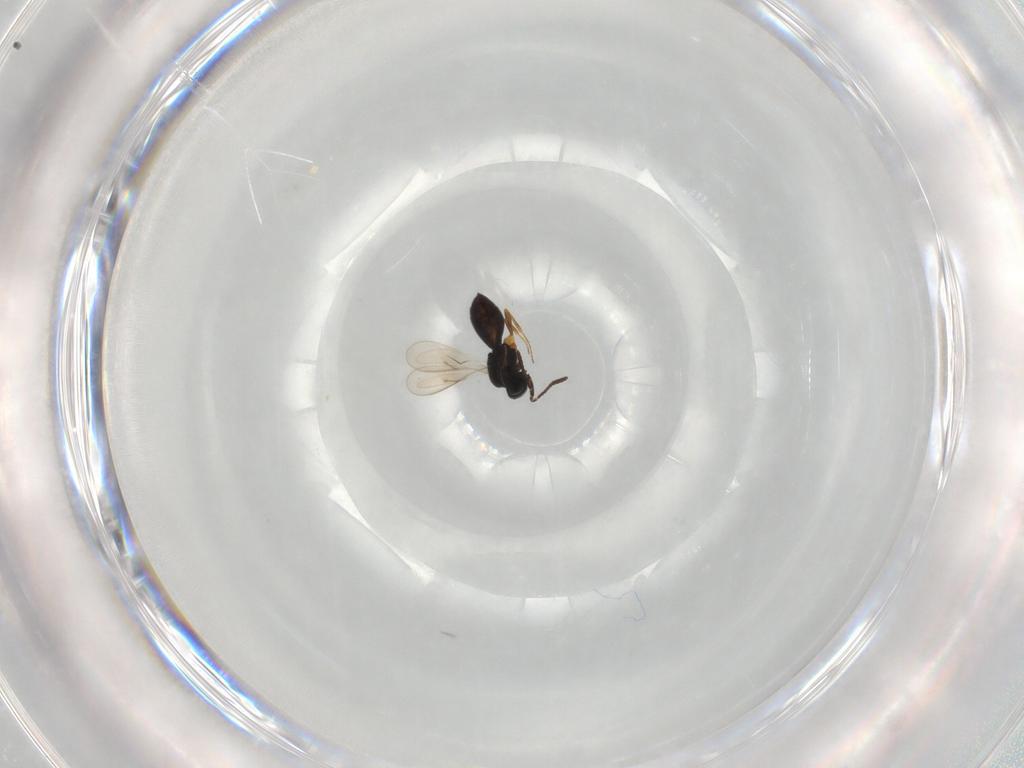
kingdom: Animalia
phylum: Arthropoda
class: Insecta
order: Hymenoptera
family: Scelionidae
